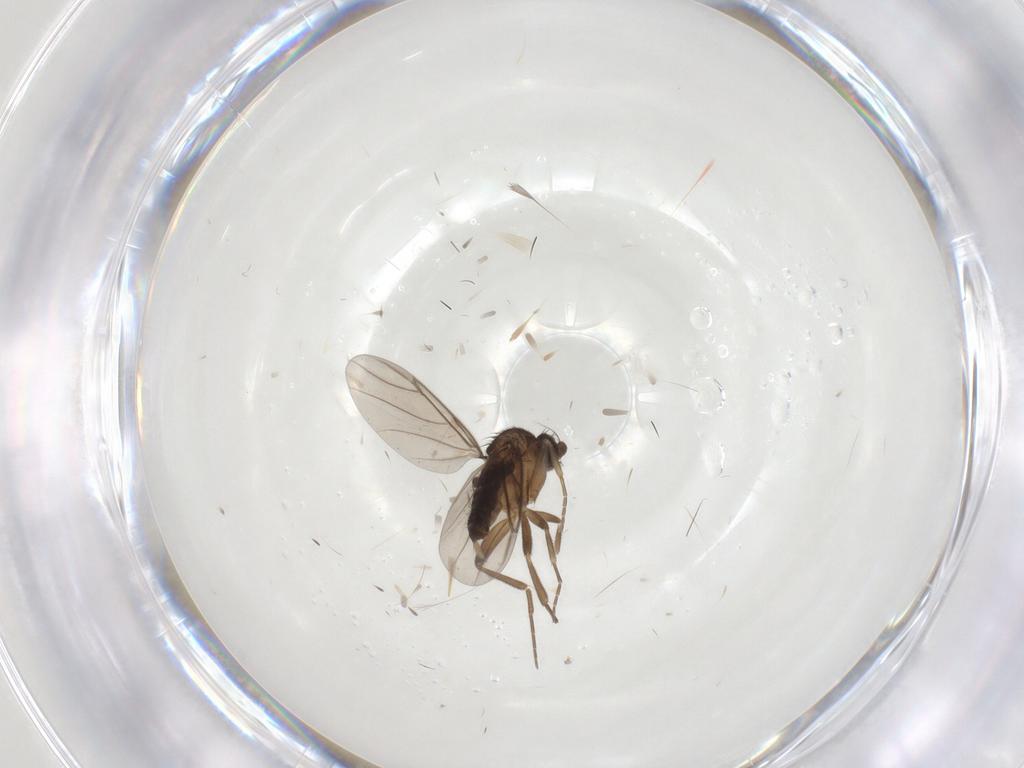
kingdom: Animalia
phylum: Arthropoda
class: Insecta
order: Diptera
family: Phoridae
